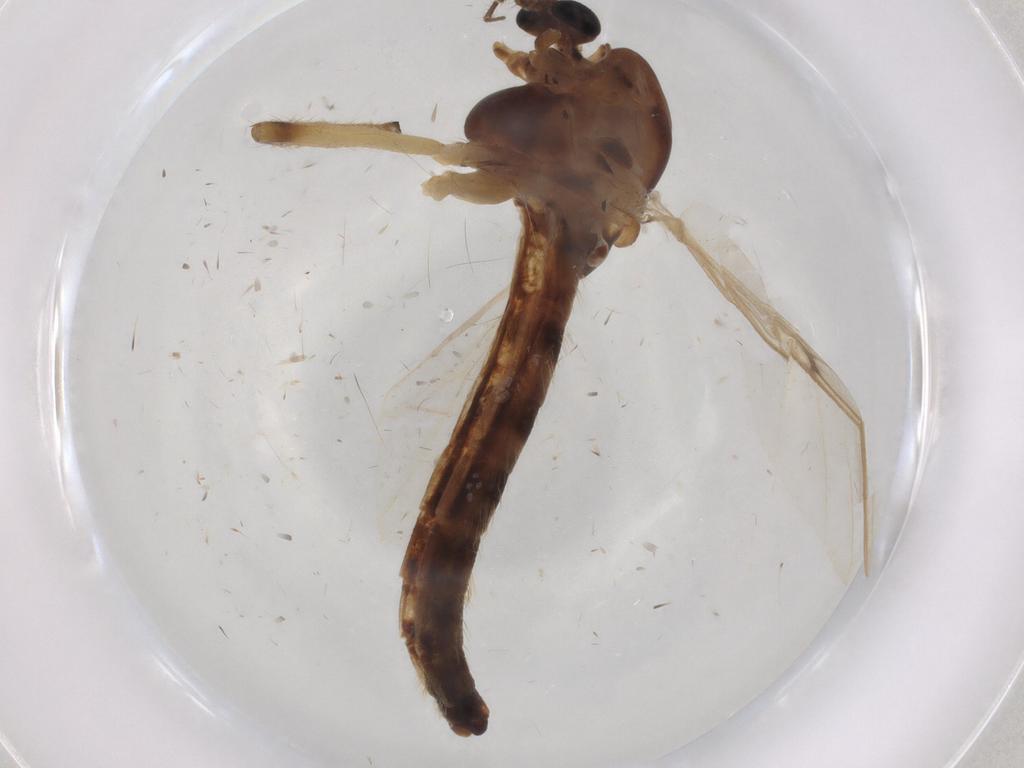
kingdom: Animalia
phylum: Arthropoda
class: Insecta
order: Diptera
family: Chironomidae
